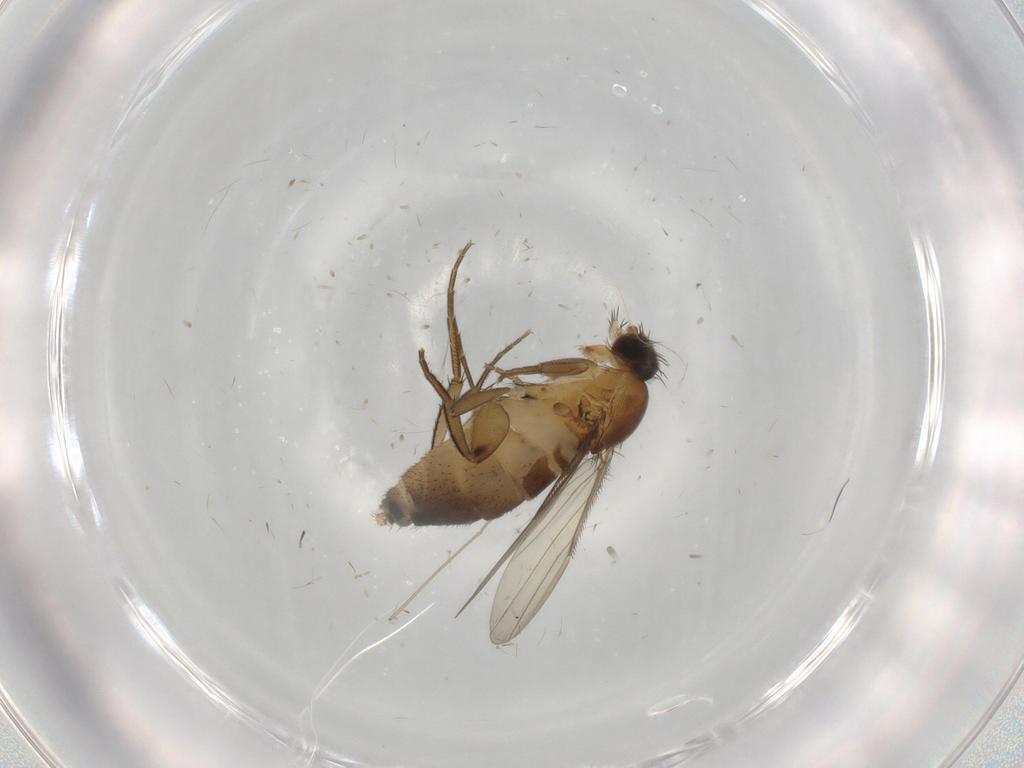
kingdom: Animalia
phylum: Arthropoda
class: Insecta
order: Diptera
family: Phoridae
